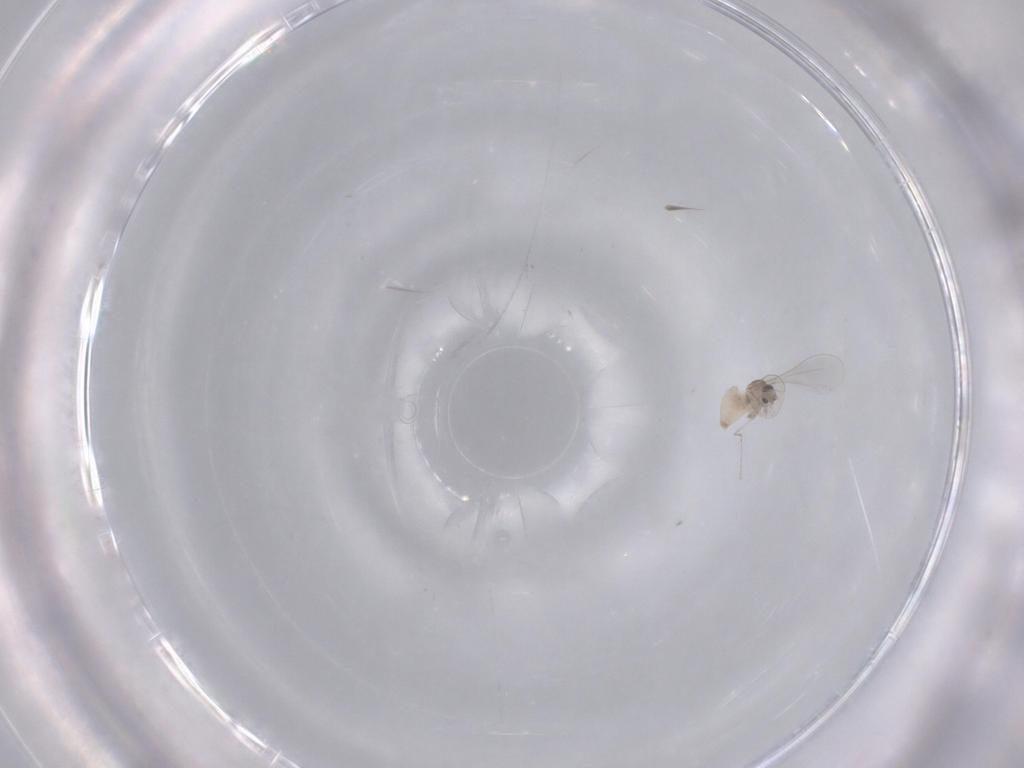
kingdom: Animalia
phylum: Arthropoda
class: Insecta
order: Diptera
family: Cecidomyiidae
